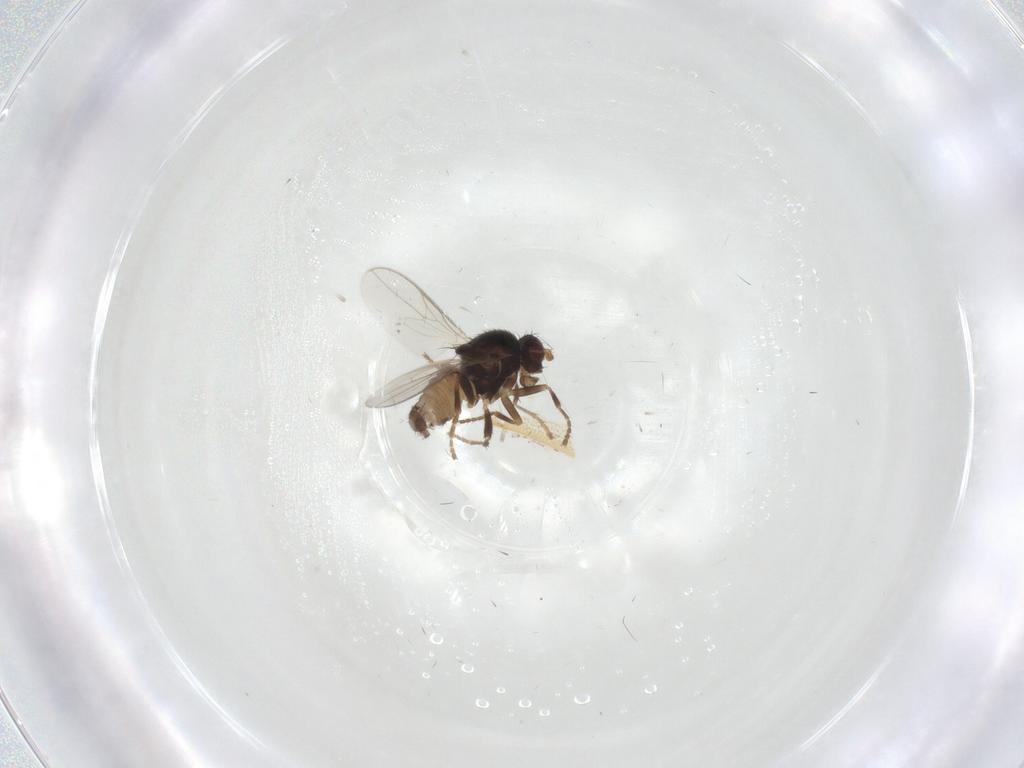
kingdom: Animalia
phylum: Arthropoda
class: Insecta
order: Diptera
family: Sphaeroceridae
